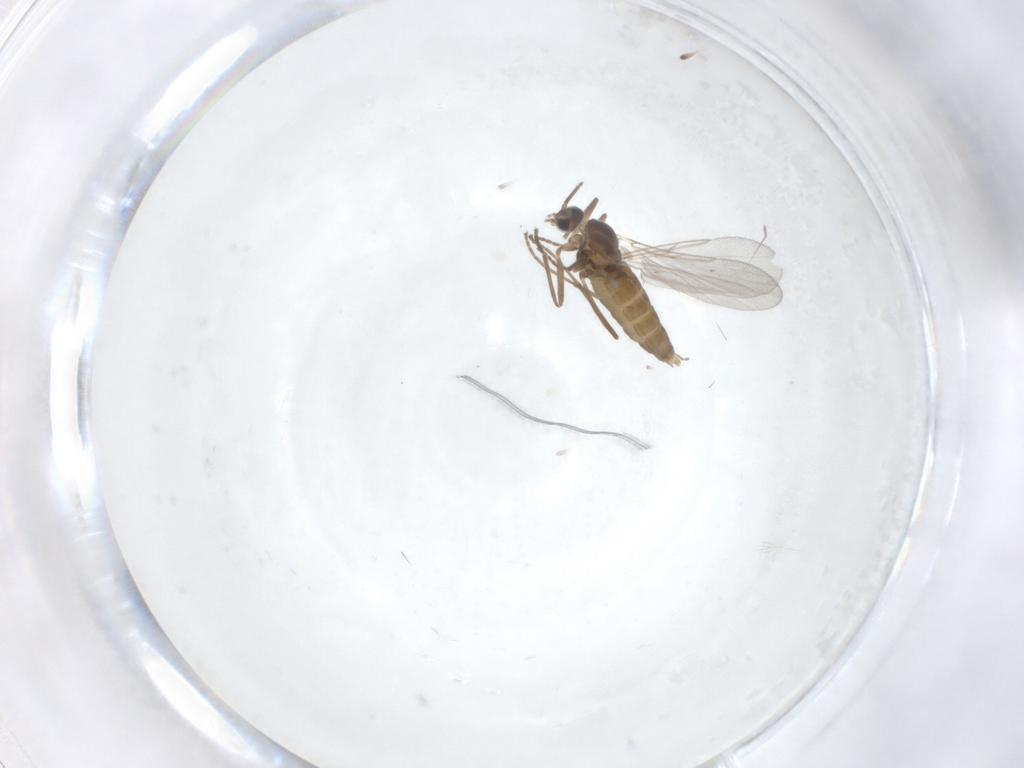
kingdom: Animalia
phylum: Arthropoda
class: Insecta
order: Diptera
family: Cecidomyiidae
